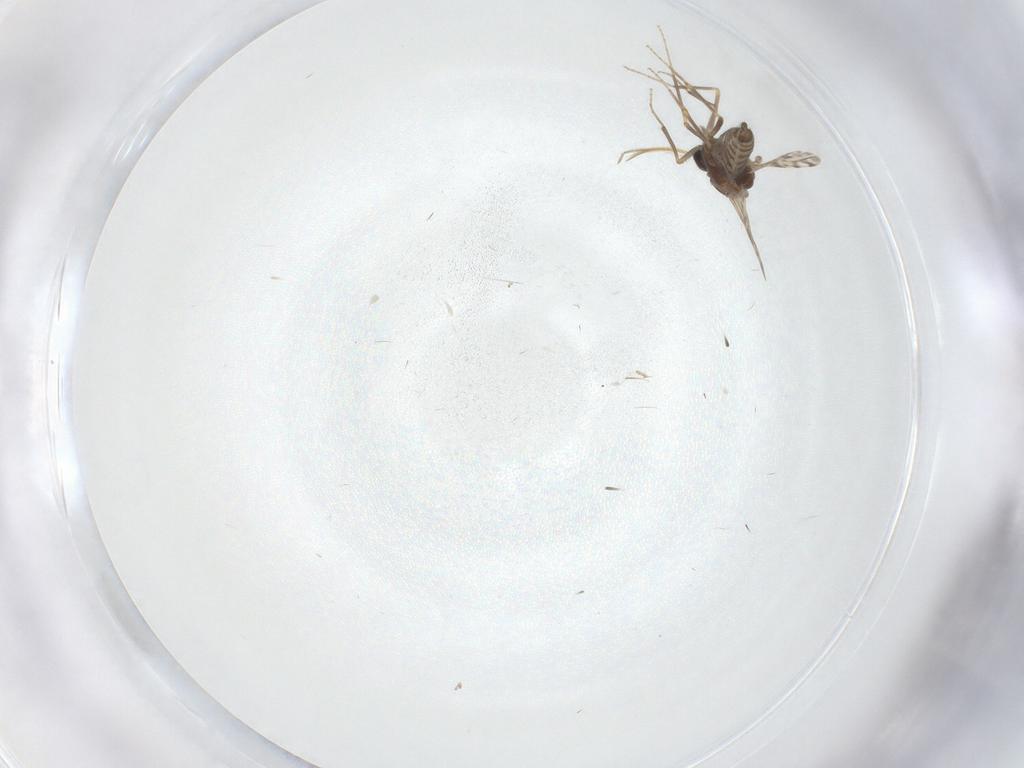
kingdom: Animalia
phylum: Arthropoda
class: Insecta
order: Diptera
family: Ceratopogonidae
